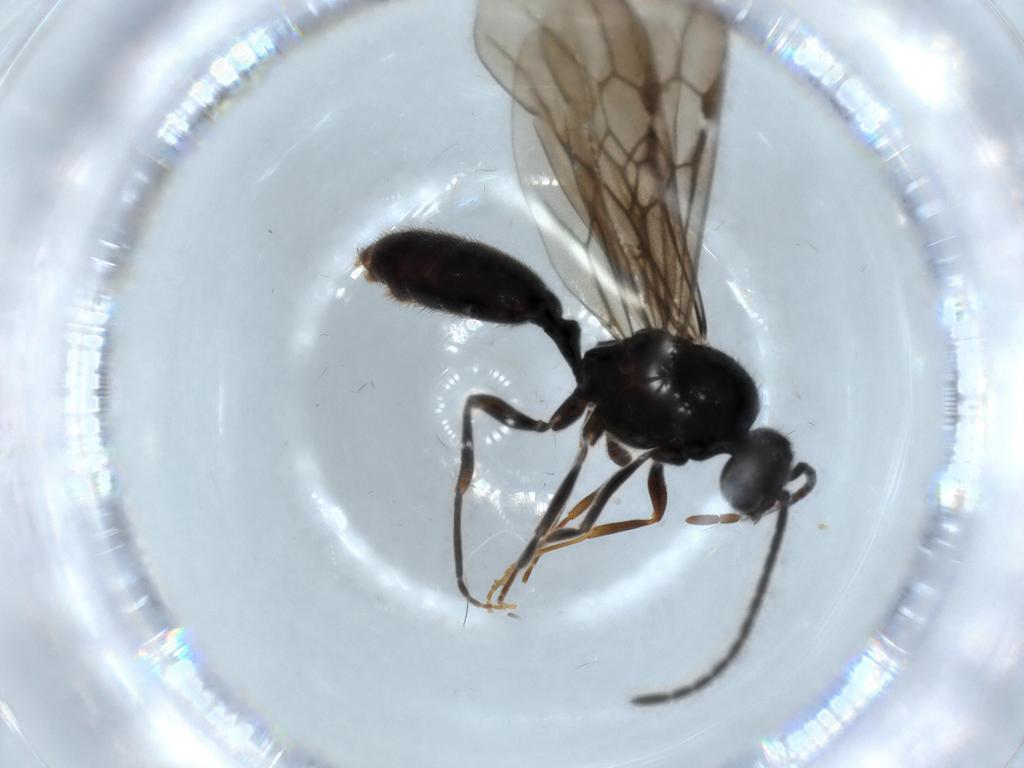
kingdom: Animalia
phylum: Arthropoda
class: Insecta
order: Hymenoptera
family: Formicidae
